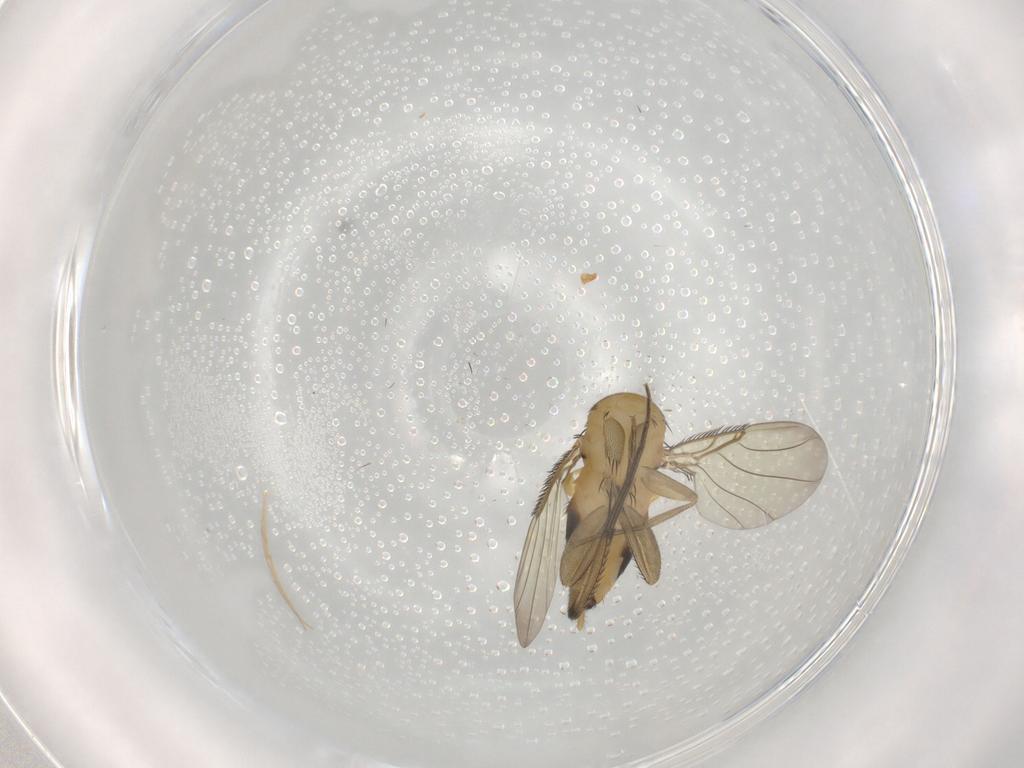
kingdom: Animalia
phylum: Arthropoda
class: Insecta
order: Diptera
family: Phoridae
